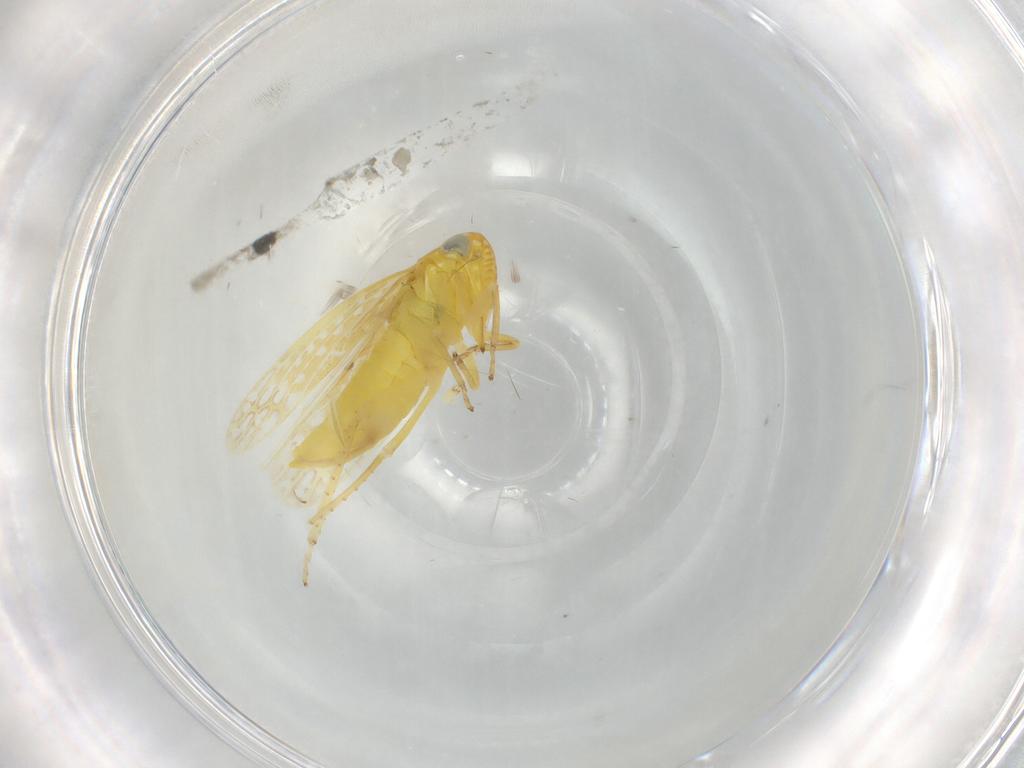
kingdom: Animalia
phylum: Arthropoda
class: Insecta
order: Hemiptera
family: Cicadellidae
